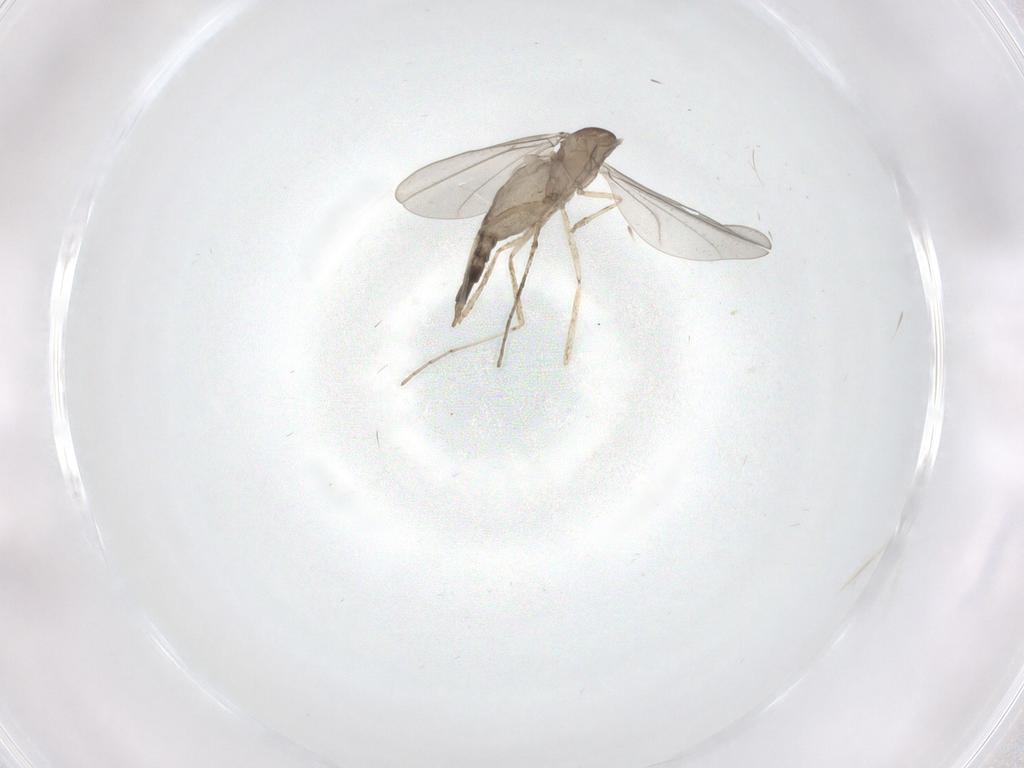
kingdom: Animalia
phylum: Arthropoda
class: Insecta
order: Diptera
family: Cecidomyiidae
